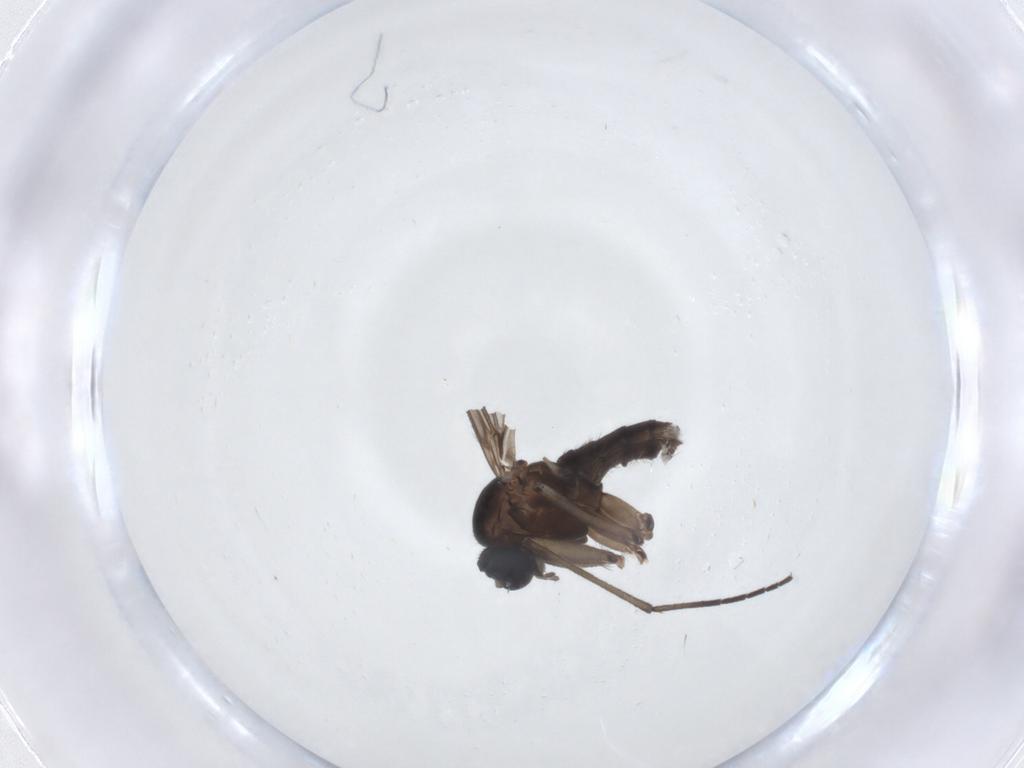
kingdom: Animalia
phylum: Arthropoda
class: Insecta
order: Diptera
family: Sciaridae
